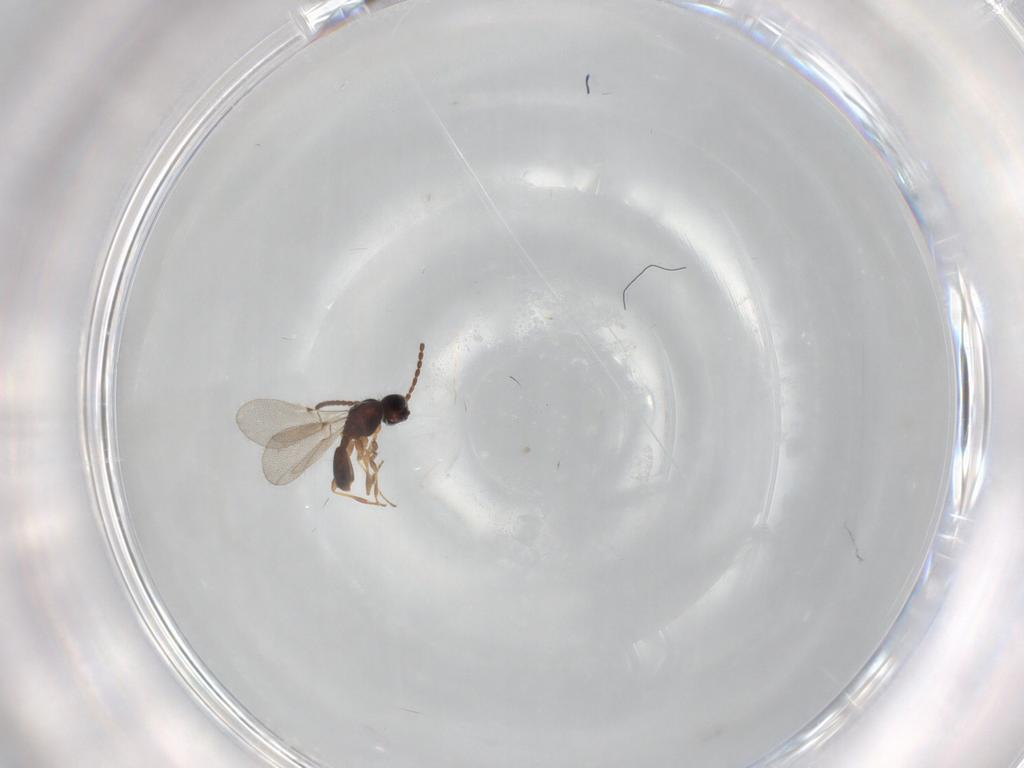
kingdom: Animalia
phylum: Arthropoda
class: Insecta
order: Hymenoptera
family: Diapriidae
